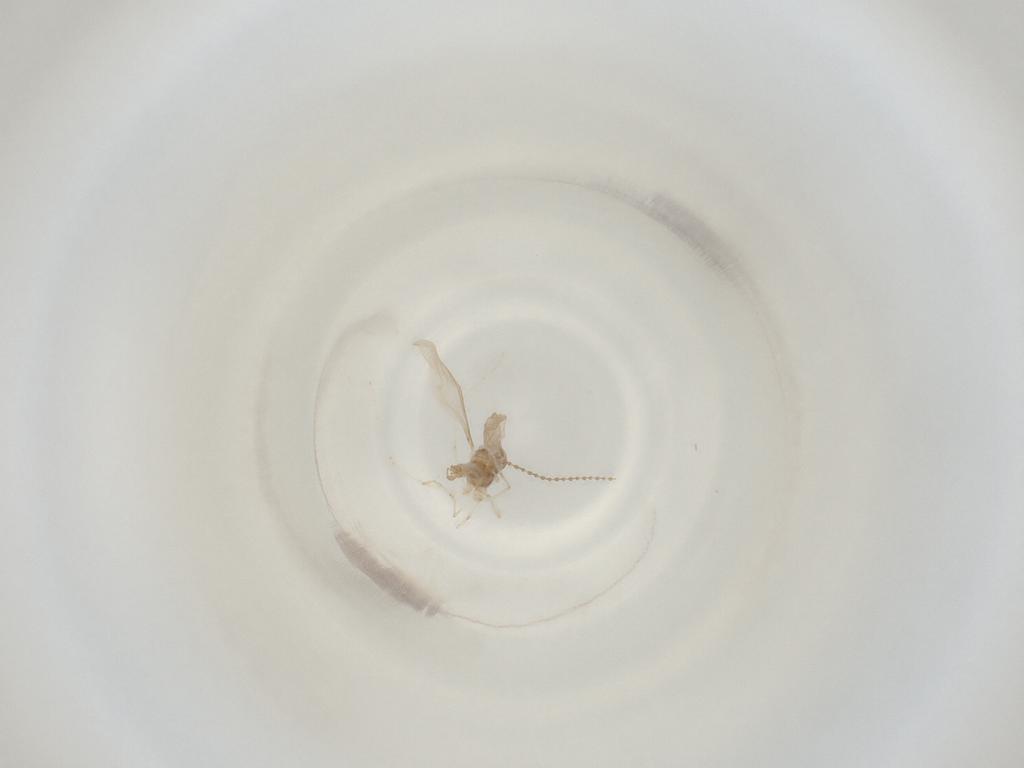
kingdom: Animalia
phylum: Arthropoda
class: Insecta
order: Diptera
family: Cecidomyiidae
